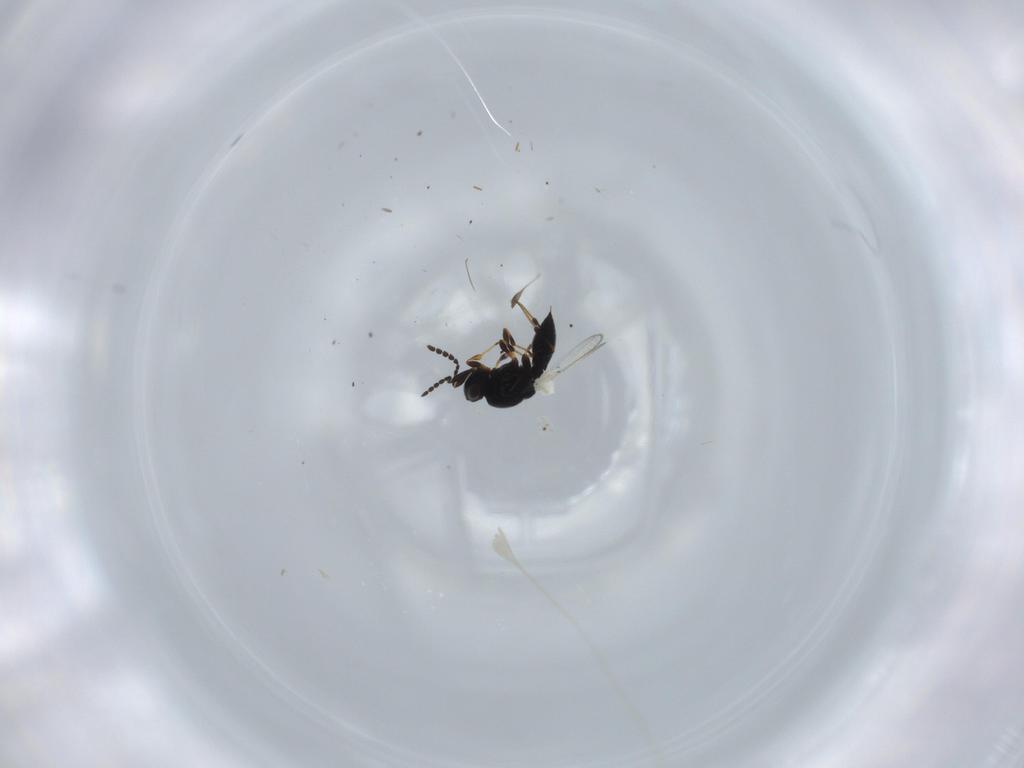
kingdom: Animalia
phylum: Arthropoda
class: Insecta
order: Hymenoptera
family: Platygastridae
